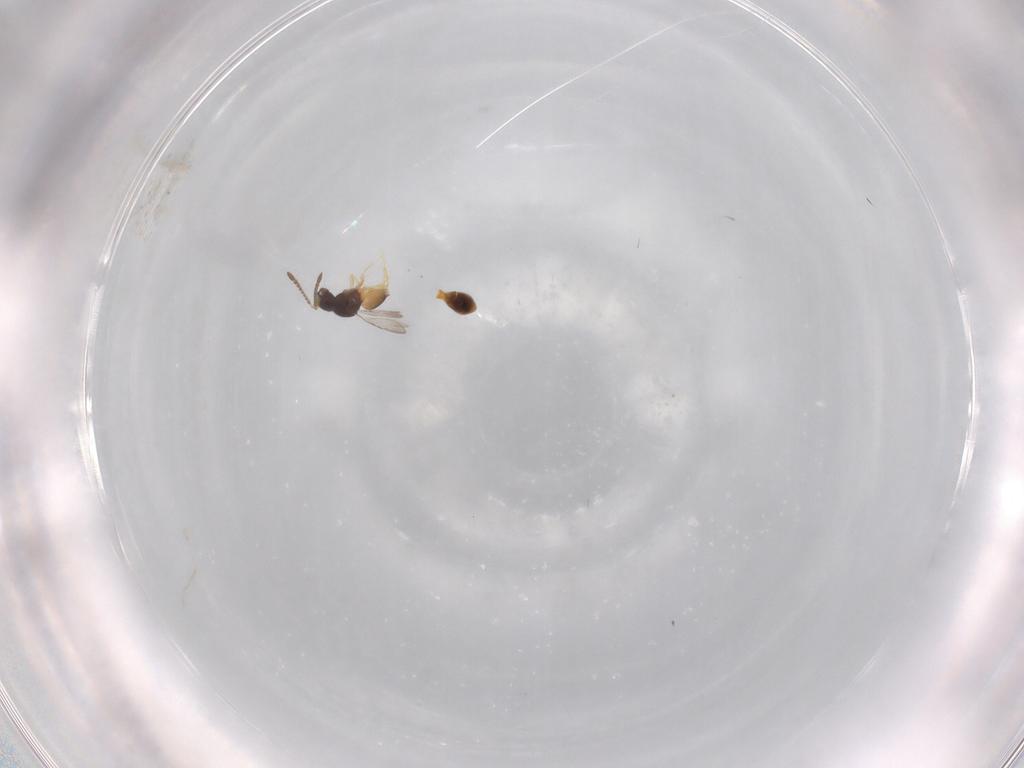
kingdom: Animalia
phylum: Arthropoda
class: Insecta
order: Hymenoptera
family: Platygastridae
